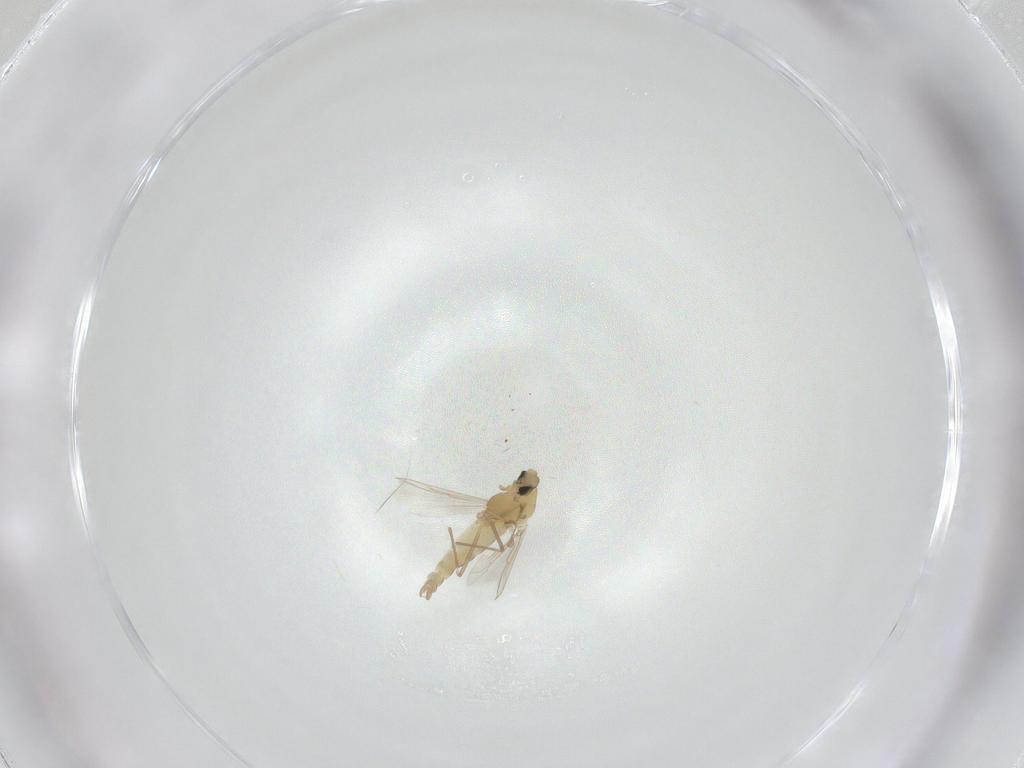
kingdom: Animalia
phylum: Arthropoda
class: Insecta
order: Diptera
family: Chironomidae
